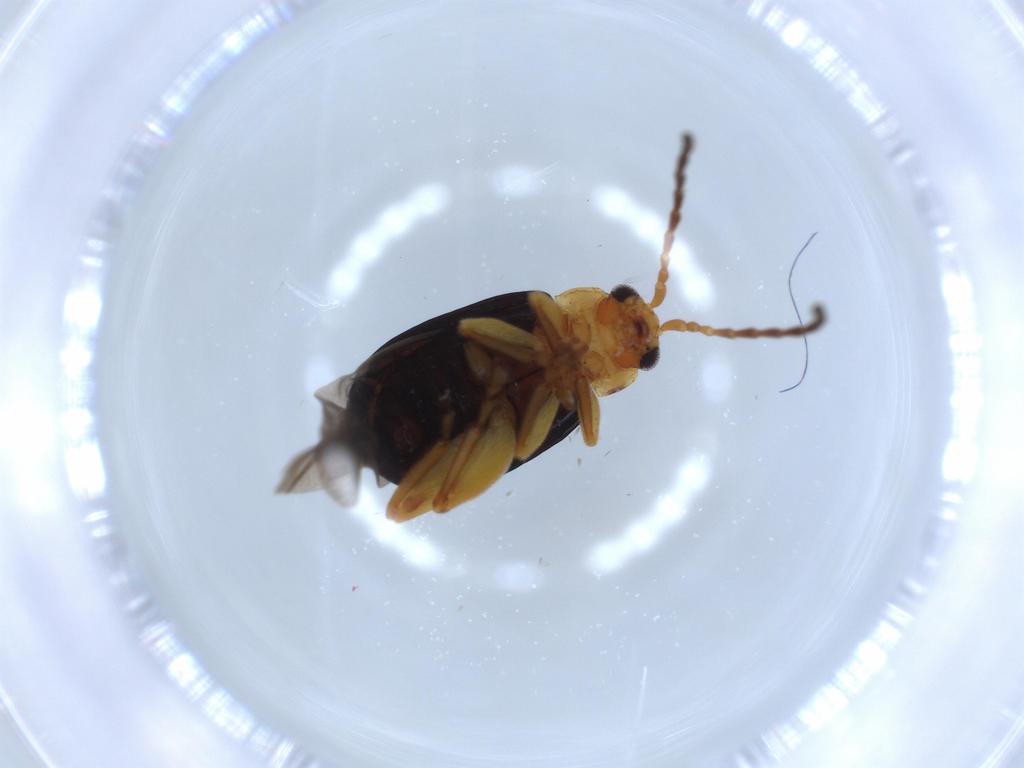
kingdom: Animalia
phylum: Arthropoda
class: Insecta
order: Coleoptera
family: Chrysomelidae
